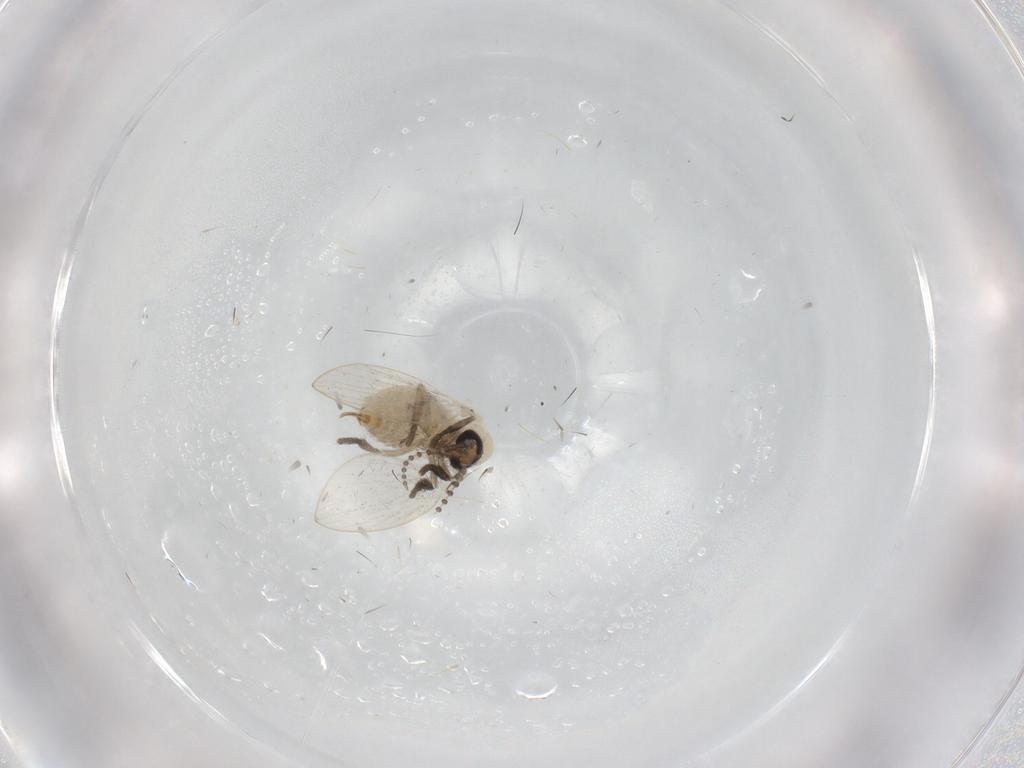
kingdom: Animalia
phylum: Arthropoda
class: Insecta
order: Diptera
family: Psychodidae
